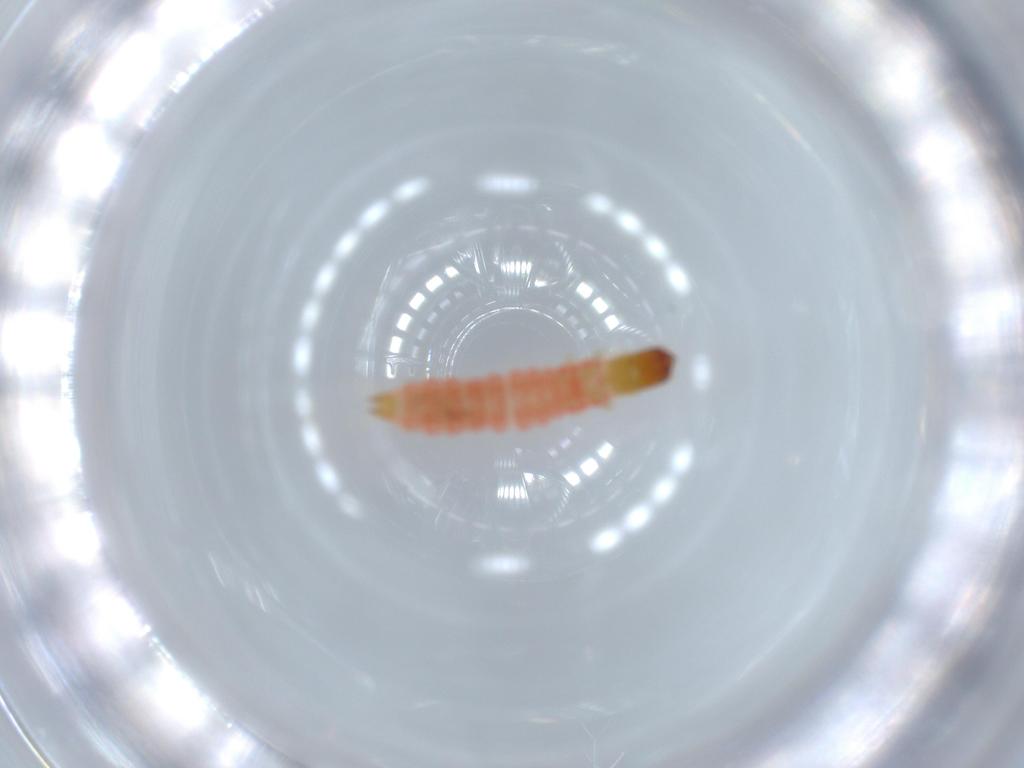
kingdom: Animalia
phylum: Arthropoda
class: Insecta
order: Coleoptera
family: Cleridae
